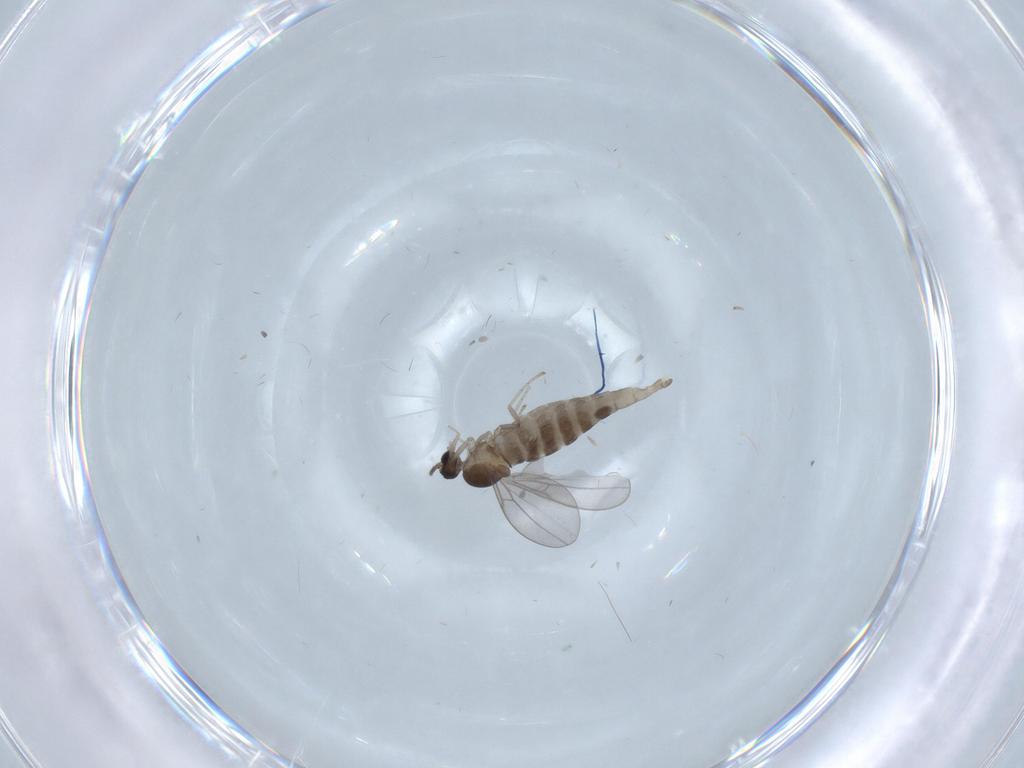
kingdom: Animalia
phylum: Arthropoda
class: Insecta
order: Diptera
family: Cecidomyiidae
